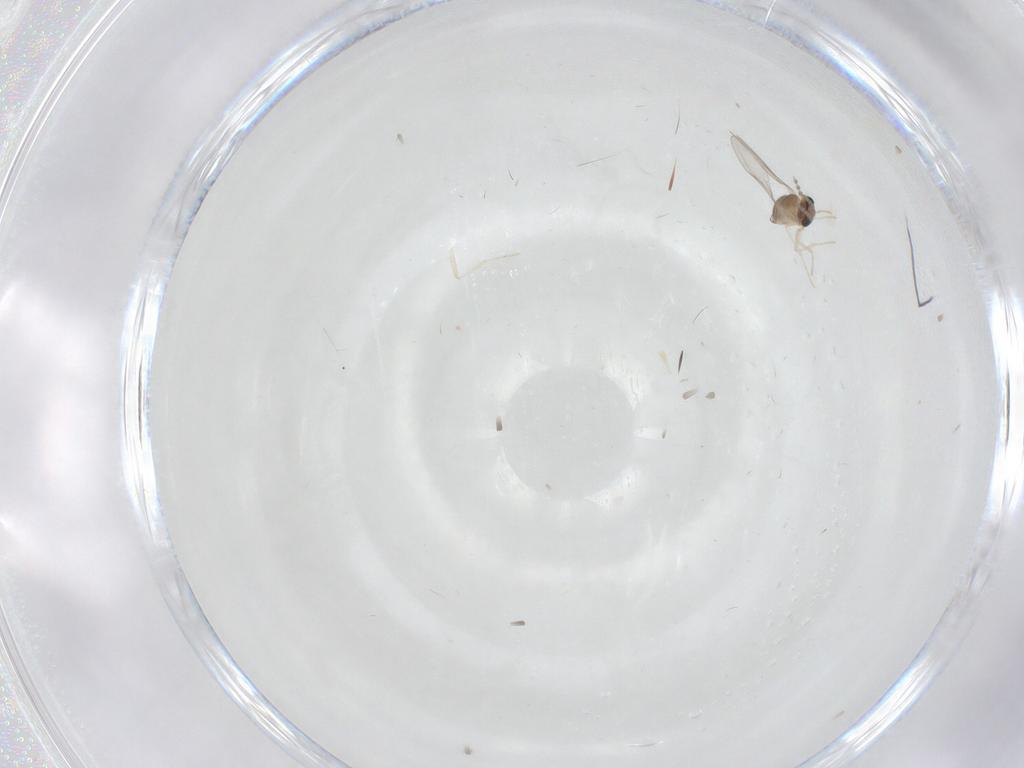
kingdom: Animalia
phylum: Arthropoda
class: Insecta
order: Diptera
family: Cecidomyiidae
